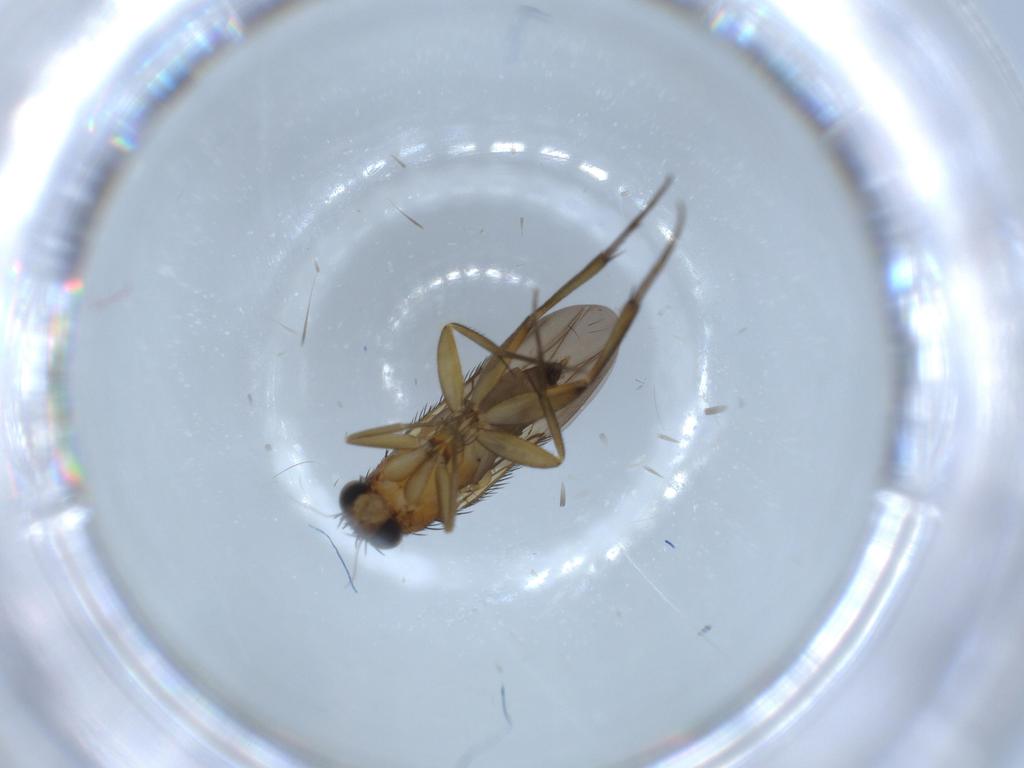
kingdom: Animalia
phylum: Arthropoda
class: Insecta
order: Diptera
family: Phoridae
